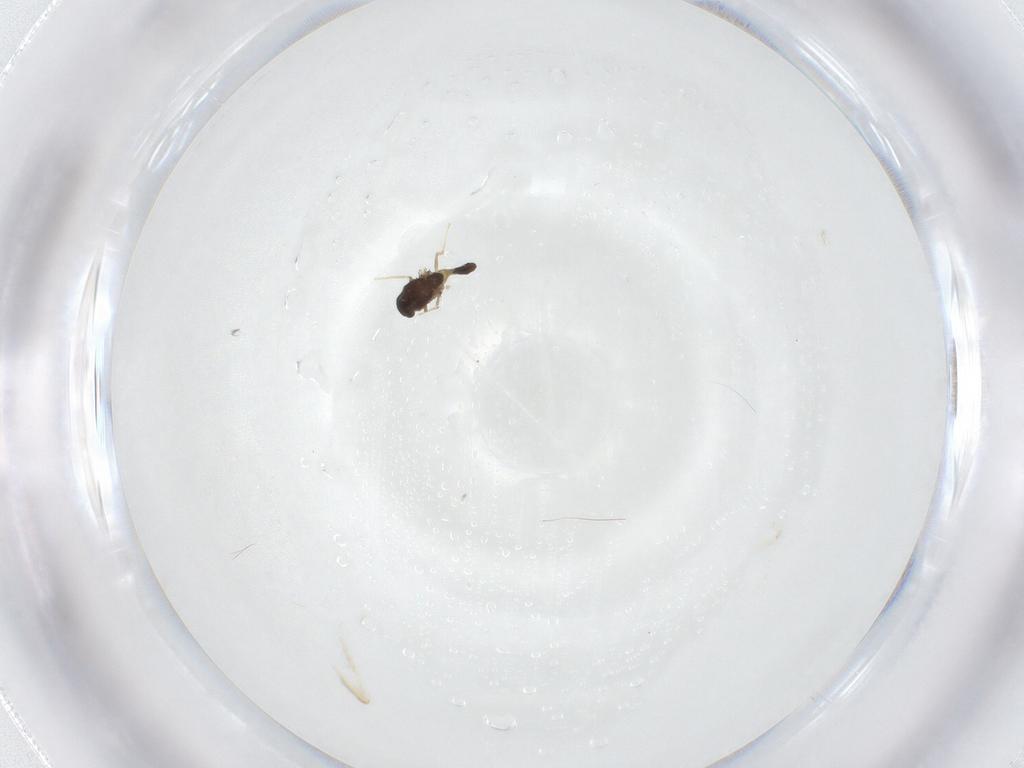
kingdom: Animalia
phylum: Arthropoda
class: Insecta
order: Diptera
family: Chironomidae
